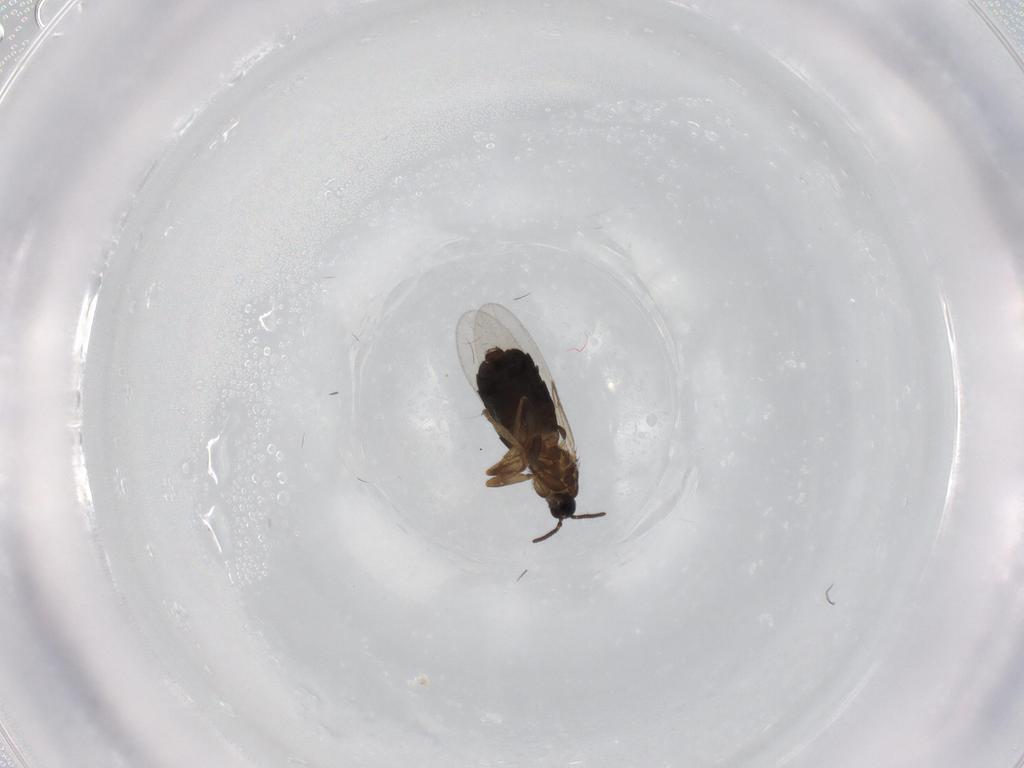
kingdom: Animalia
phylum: Arthropoda
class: Insecta
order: Diptera
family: Scatopsidae
